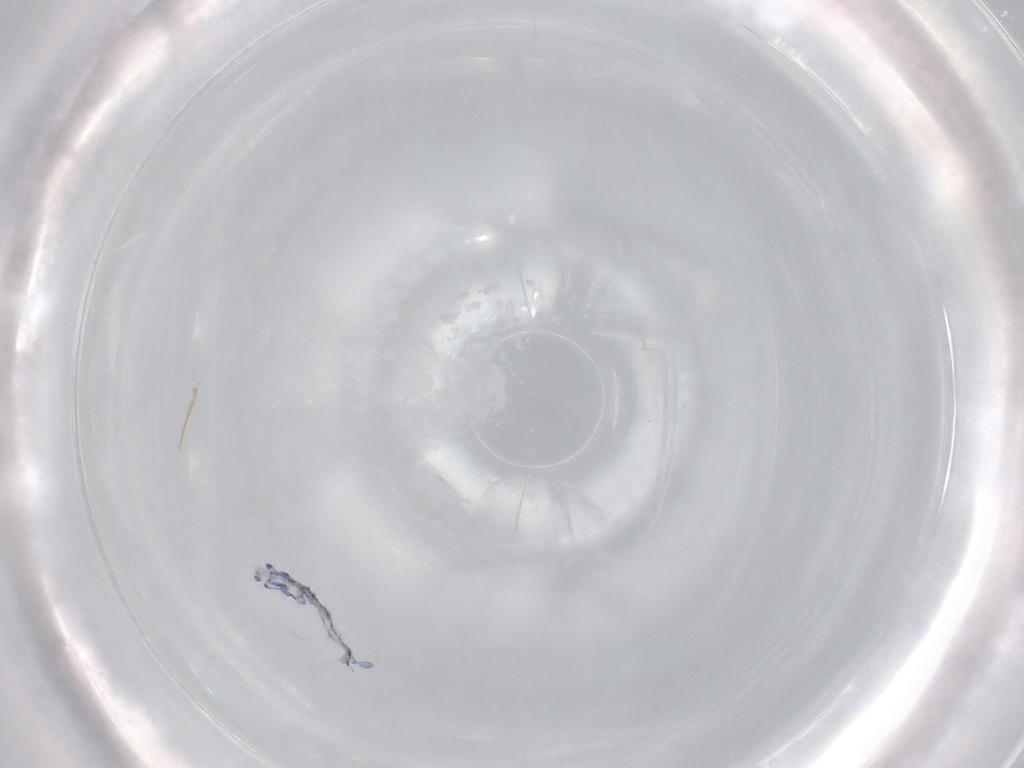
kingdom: Animalia
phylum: Arthropoda
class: Collembola
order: Entomobryomorpha
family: Entomobryidae
